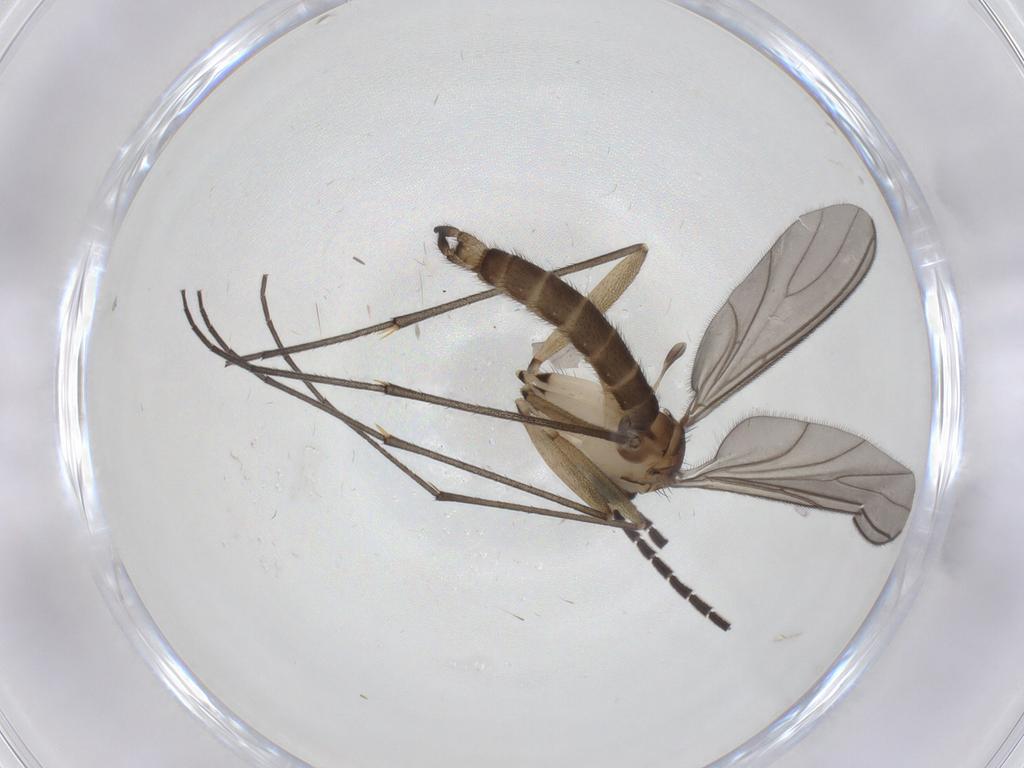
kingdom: Animalia
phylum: Arthropoda
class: Insecta
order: Diptera
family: Sciaridae
